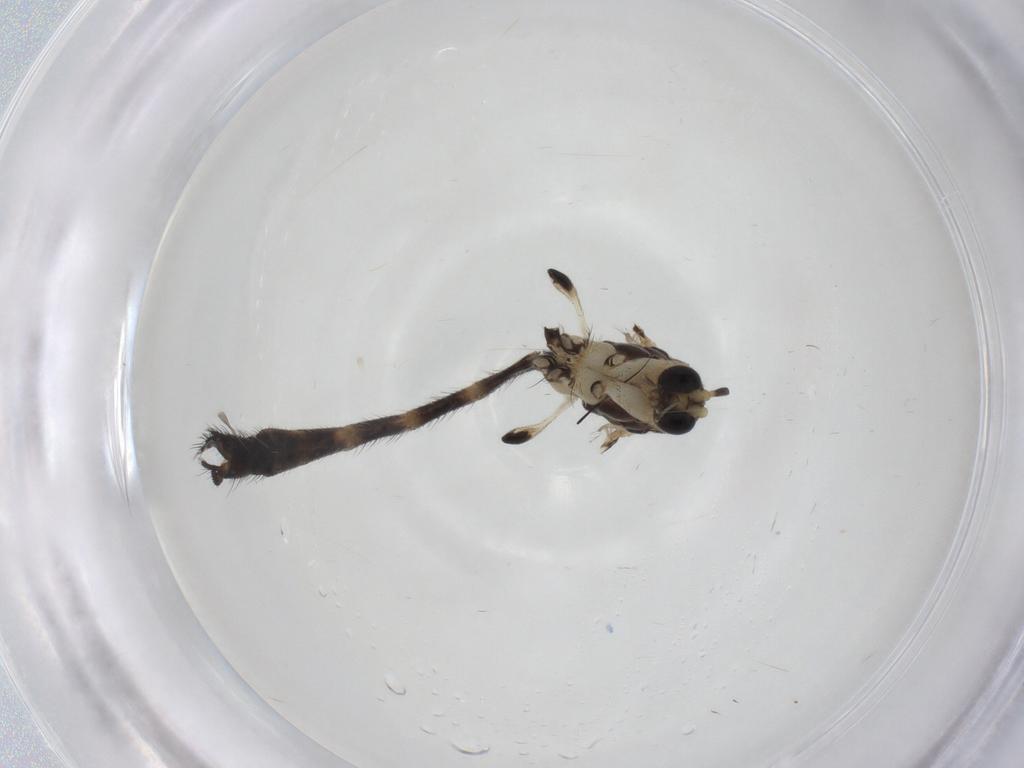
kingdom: Animalia
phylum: Arthropoda
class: Insecta
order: Diptera
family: Mycetophilidae
